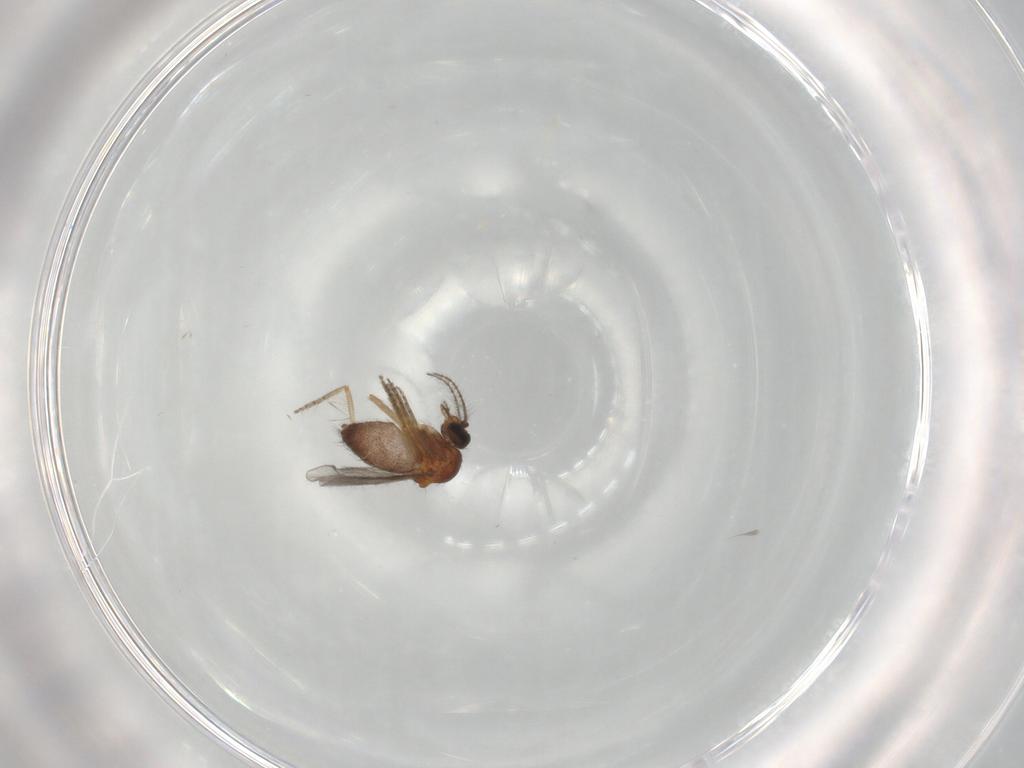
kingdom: Animalia
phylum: Arthropoda
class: Insecta
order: Diptera
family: Ceratopogonidae
